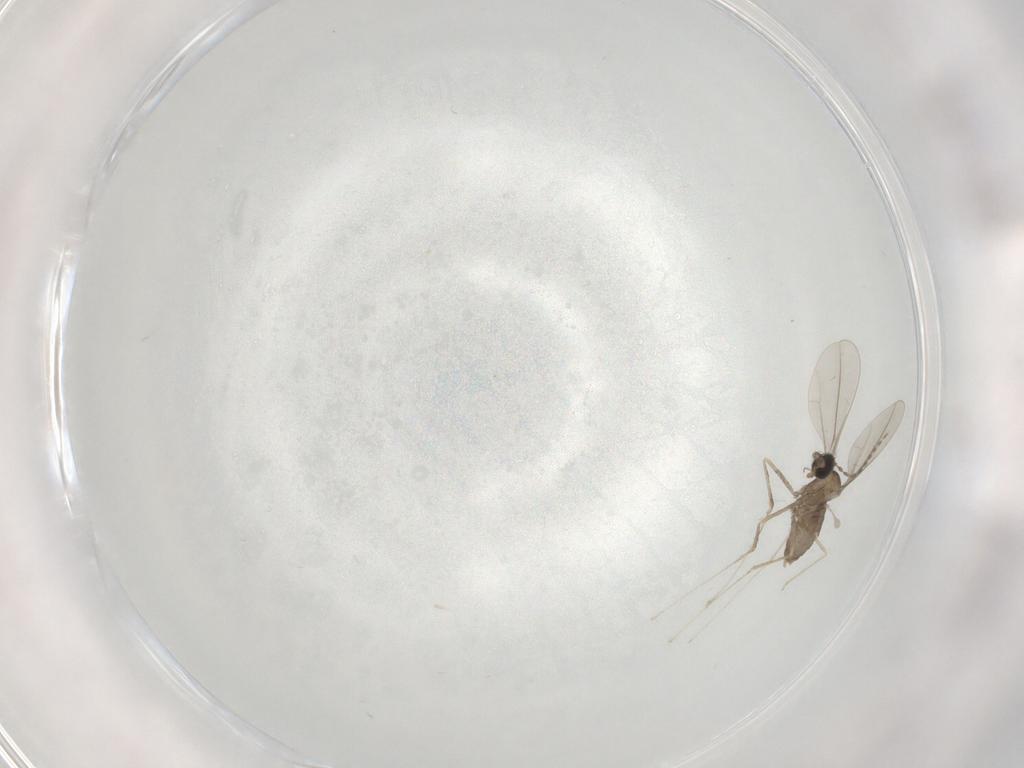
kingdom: Animalia
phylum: Arthropoda
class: Insecta
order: Diptera
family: Cecidomyiidae
